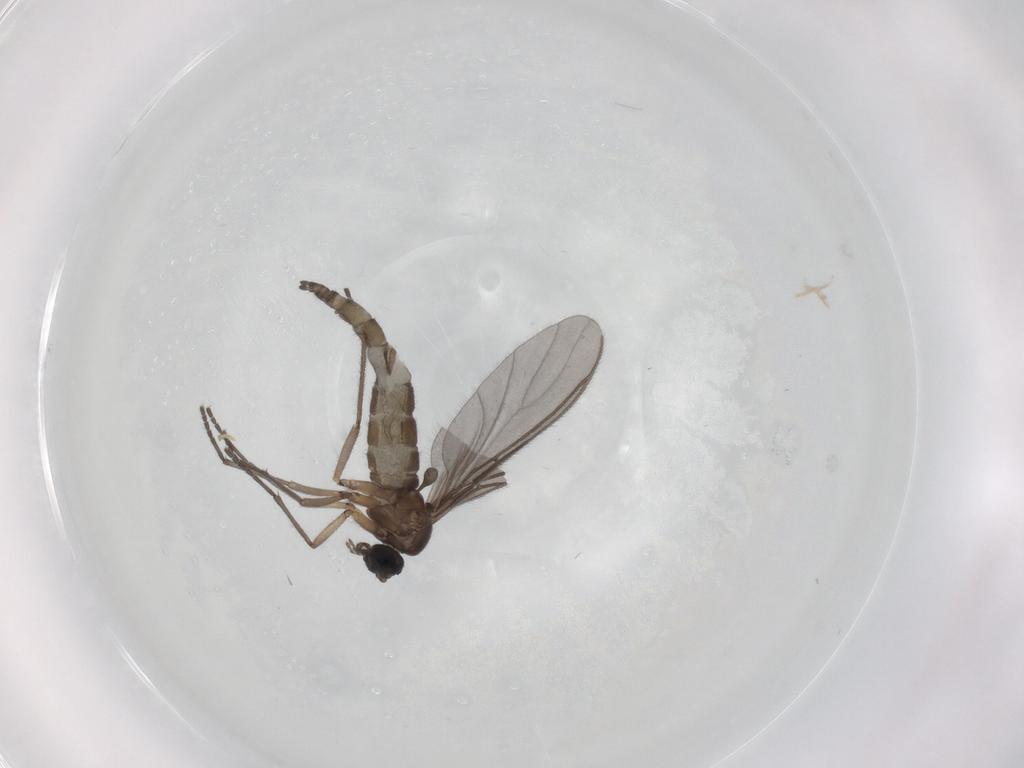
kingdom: Animalia
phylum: Arthropoda
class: Insecta
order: Diptera
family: Sciaridae
